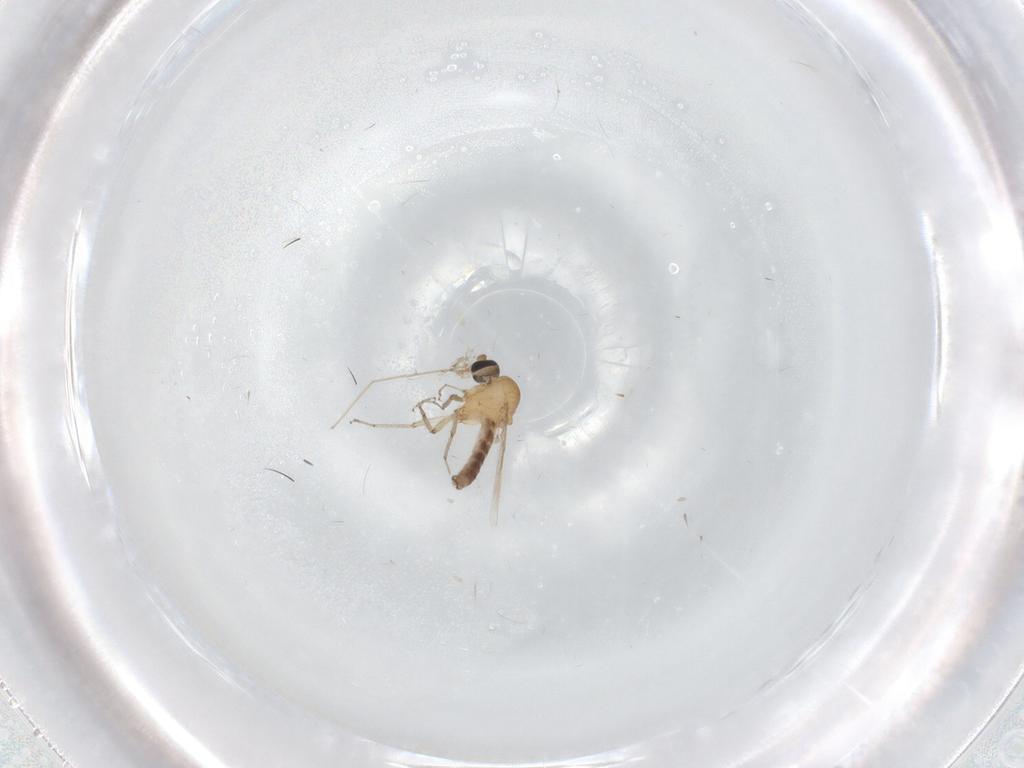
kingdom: Animalia
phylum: Arthropoda
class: Insecta
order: Diptera
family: Ceratopogonidae
